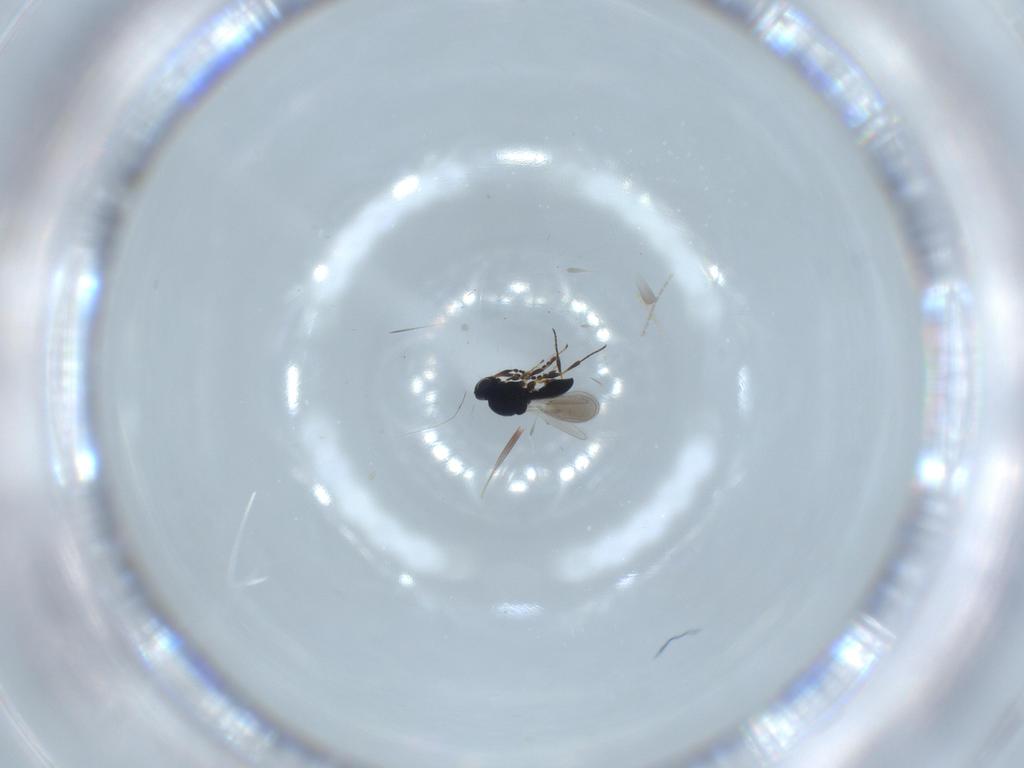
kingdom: Animalia
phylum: Arthropoda
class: Insecta
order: Hymenoptera
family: Platygastridae
